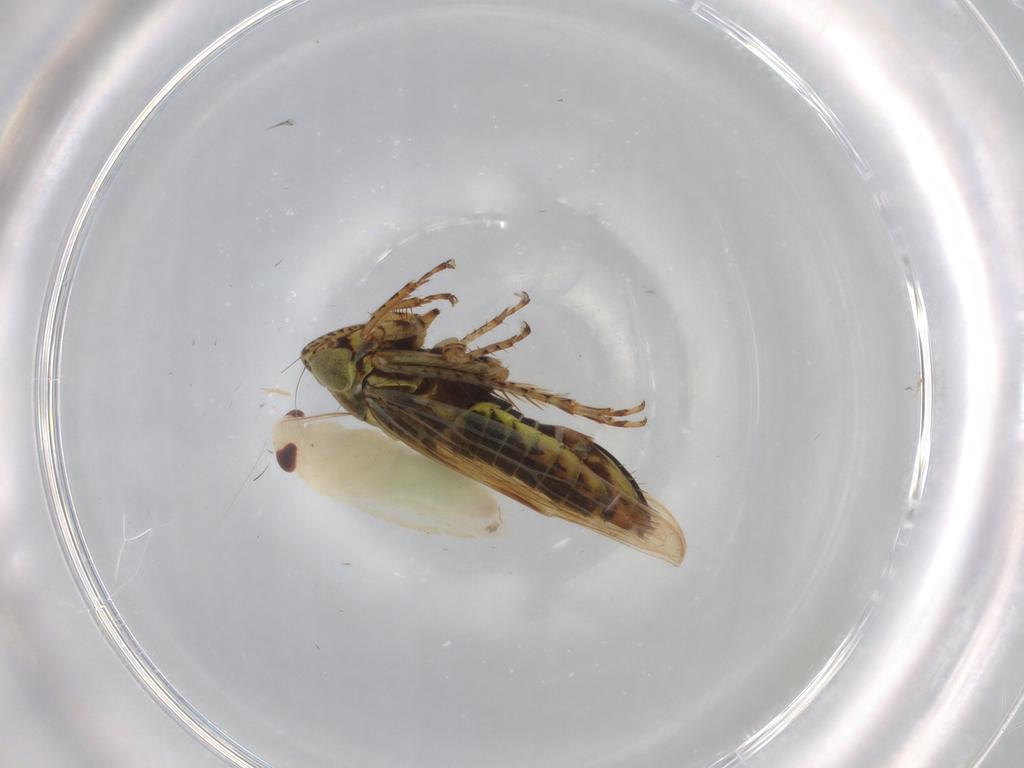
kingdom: Animalia
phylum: Arthropoda
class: Insecta
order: Hemiptera
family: Cicadellidae
